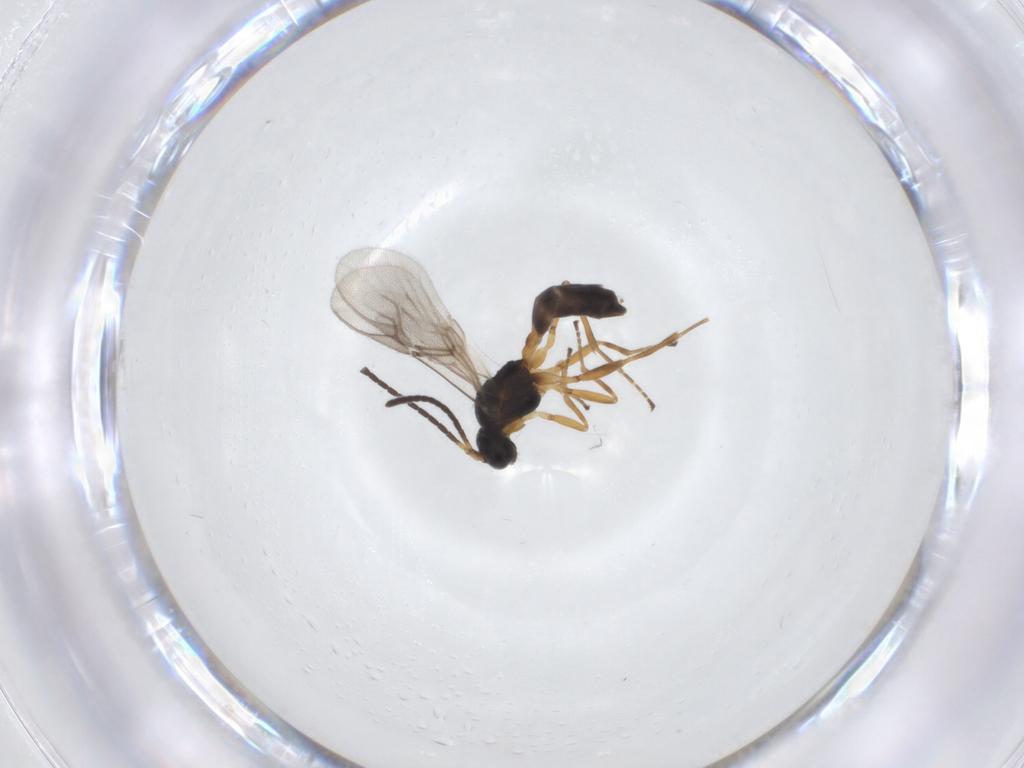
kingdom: Animalia
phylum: Arthropoda
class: Insecta
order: Hymenoptera
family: Braconidae
